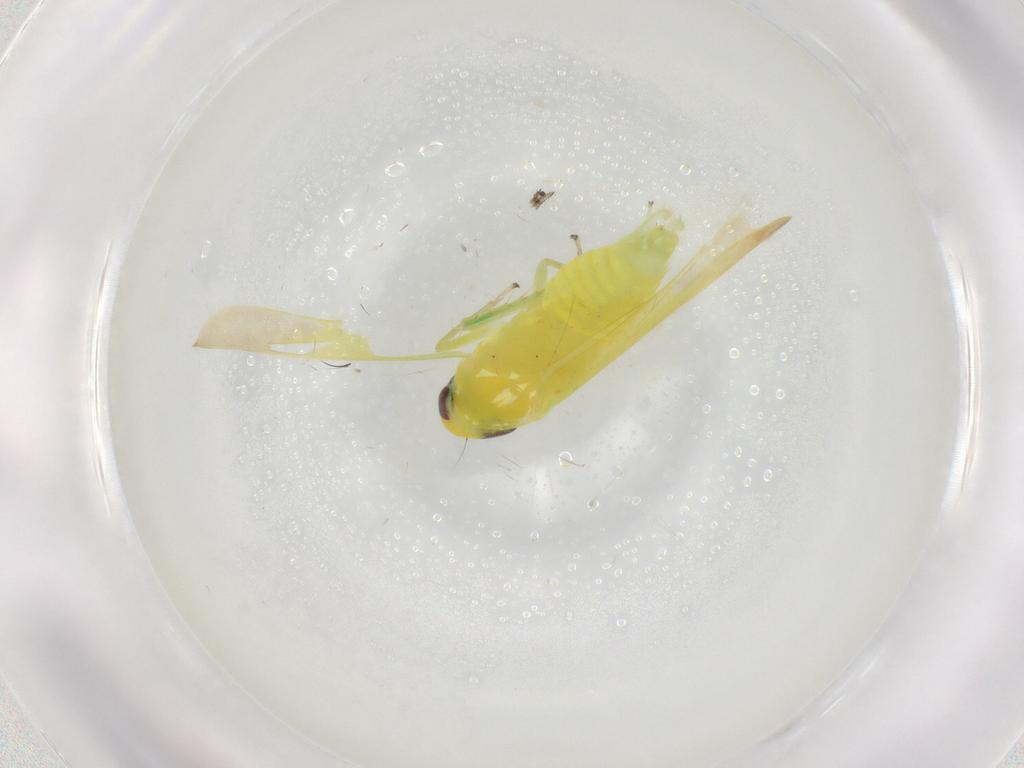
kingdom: Animalia
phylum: Arthropoda
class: Insecta
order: Hemiptera
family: Cicadellidae
